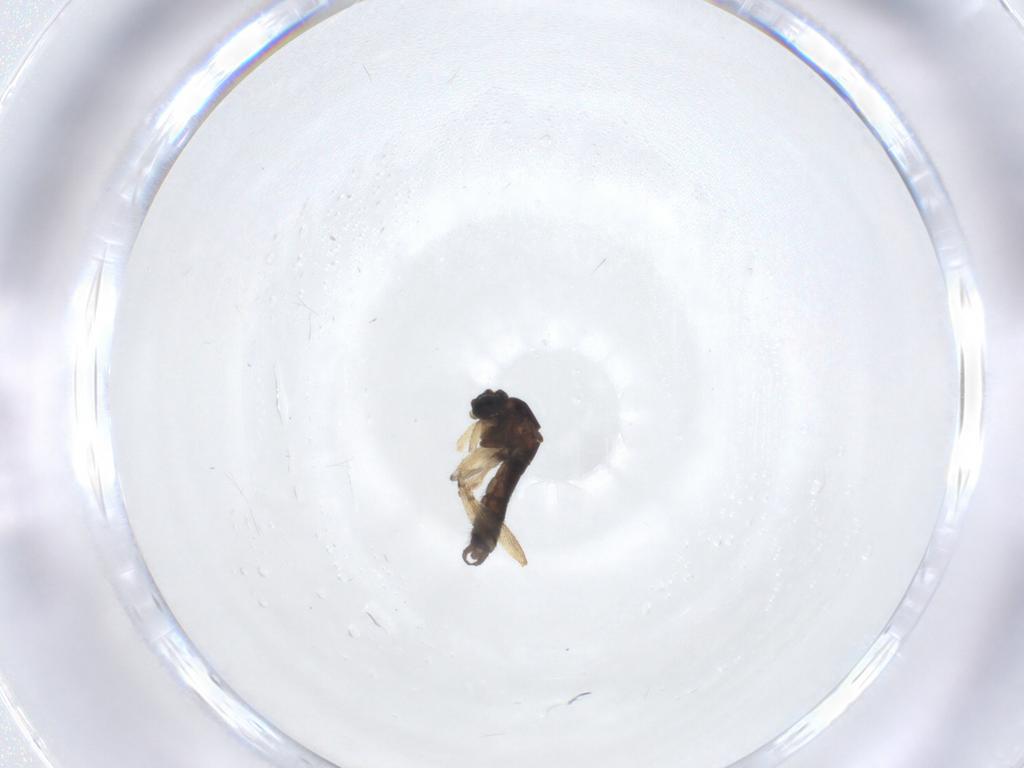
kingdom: Animalia
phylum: Arthropoda
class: Insecta
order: Diptera
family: Sciaridae
